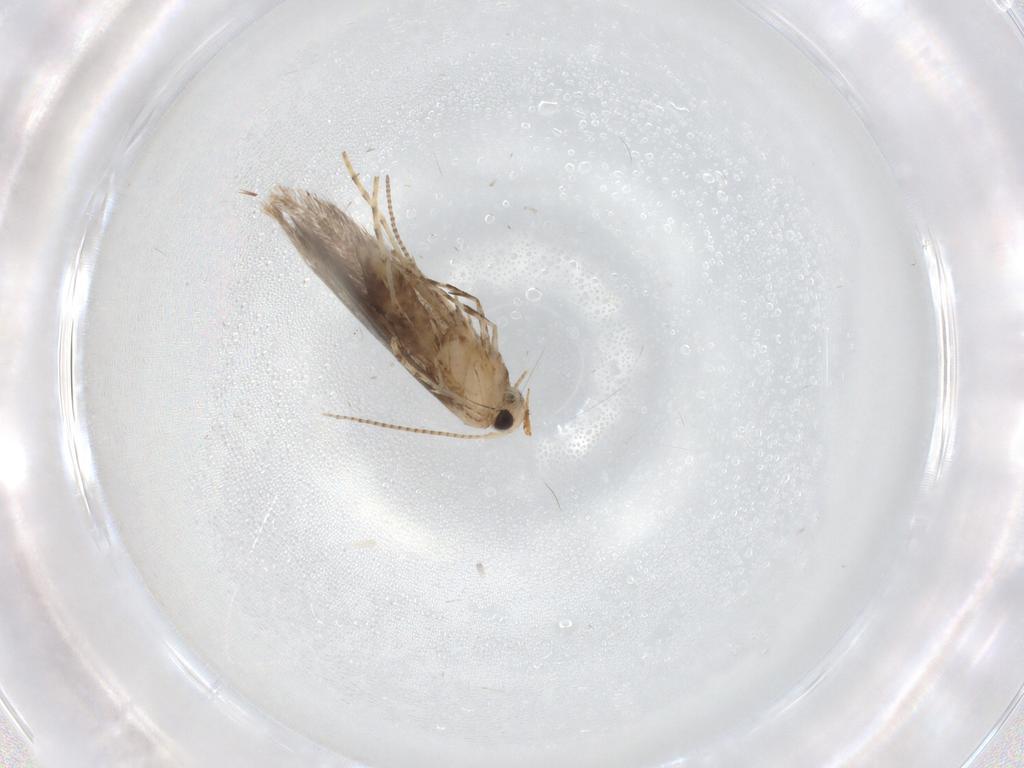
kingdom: Animalia
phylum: Arthropoda
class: Insecta
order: Lepidoptera
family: Gracillariidae
